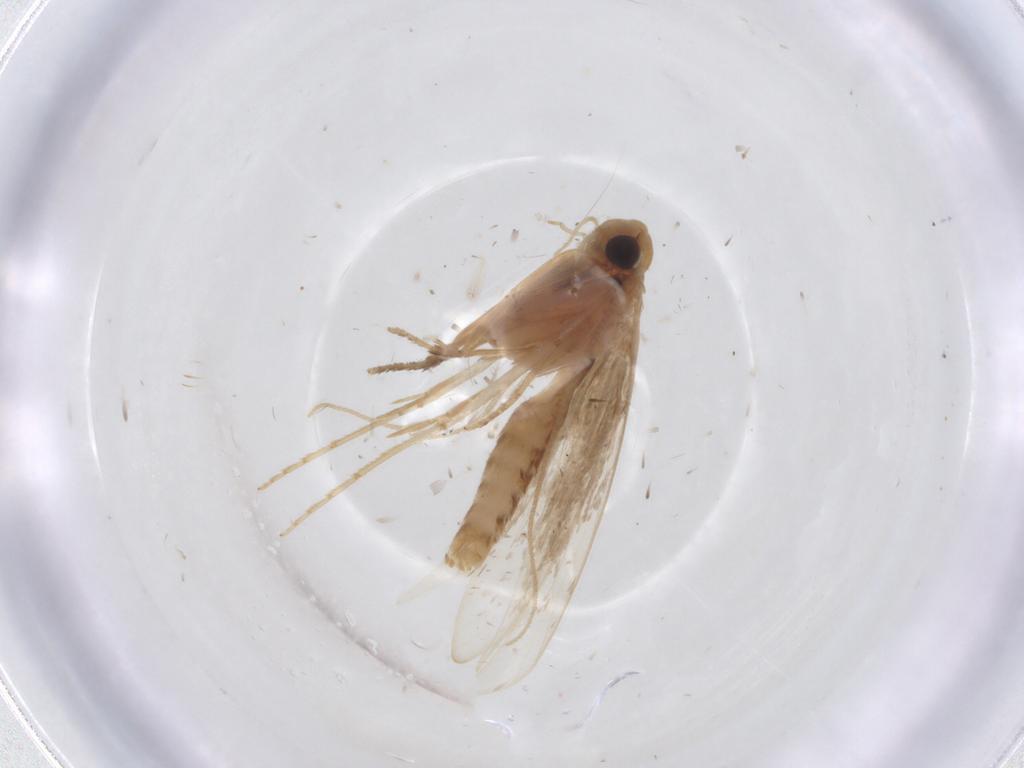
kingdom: Animalia
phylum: Arthropoda
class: Insecta
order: Lepidoptera
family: Tineidae
